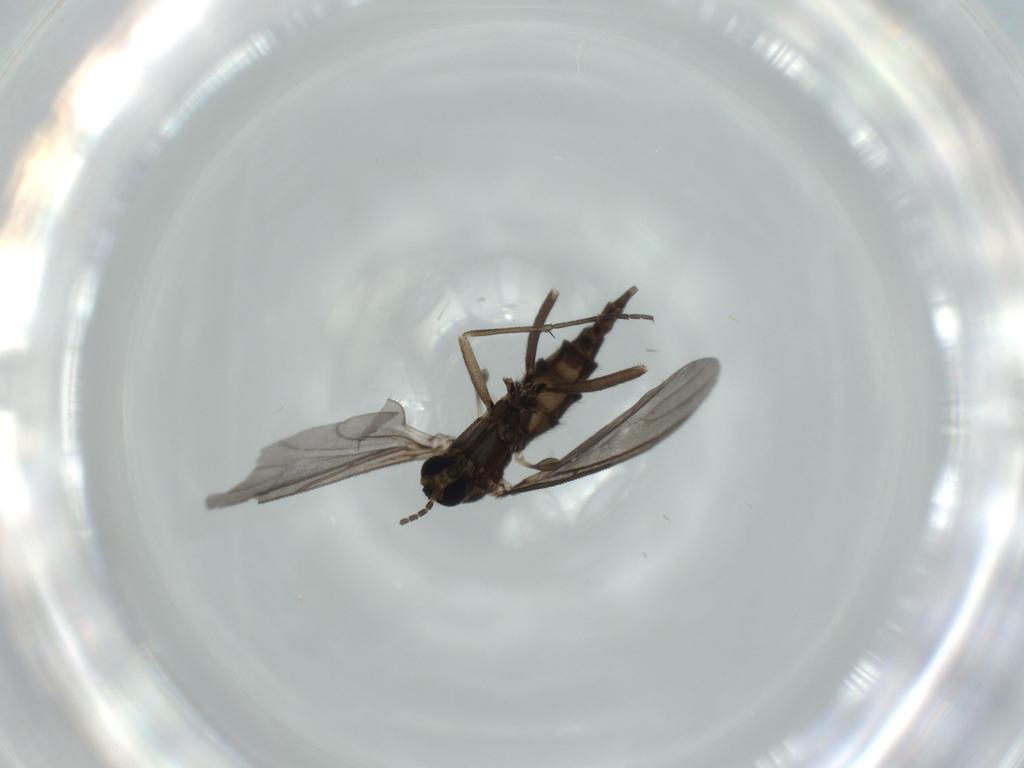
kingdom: Animalia
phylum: Arthropoda
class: Insecta
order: Diptera
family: Sciaridae
